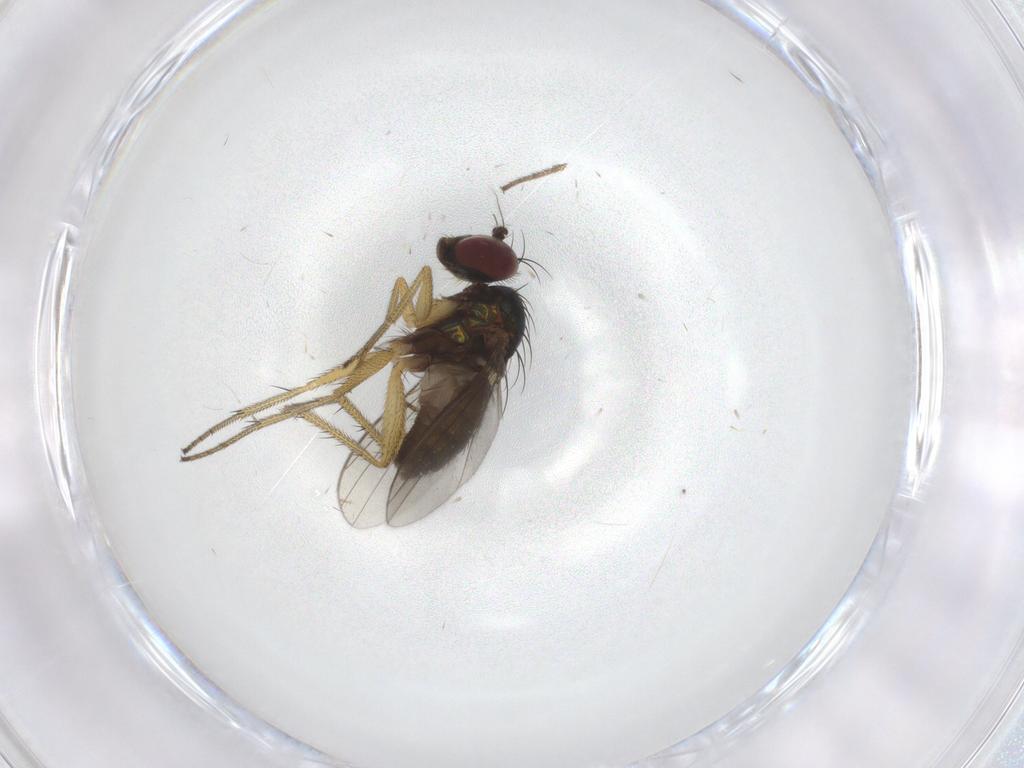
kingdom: Animalia
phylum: Arthropoda
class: Insecta
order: Diptera
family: Sciaridae
